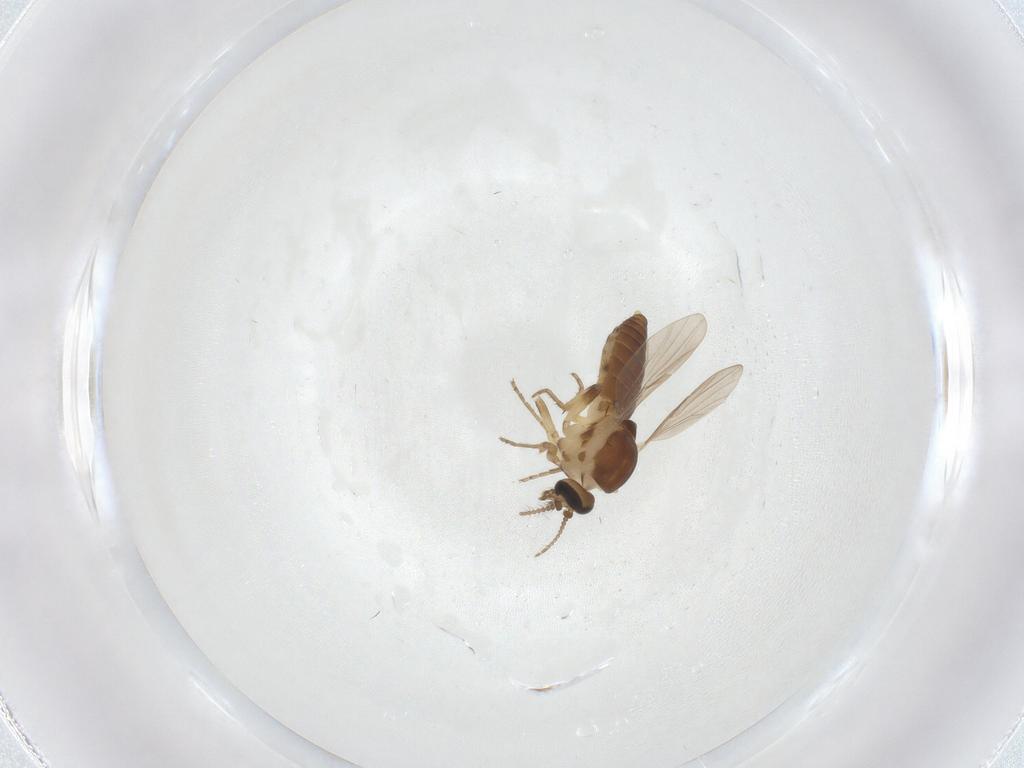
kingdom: Animalia
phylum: Arthropoda
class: Insecta
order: Diptera
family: Ceratopogonidae
